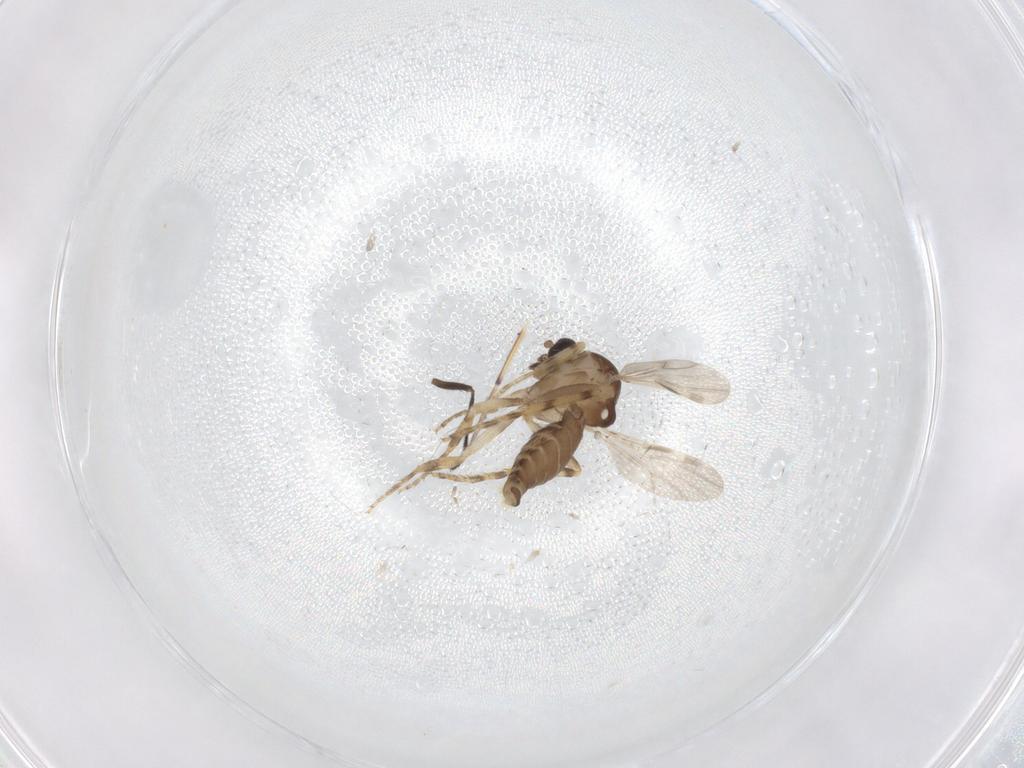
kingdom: Animalia
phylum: Arthropoda
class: Insecta
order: Diptera
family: Ceratopogonidae
